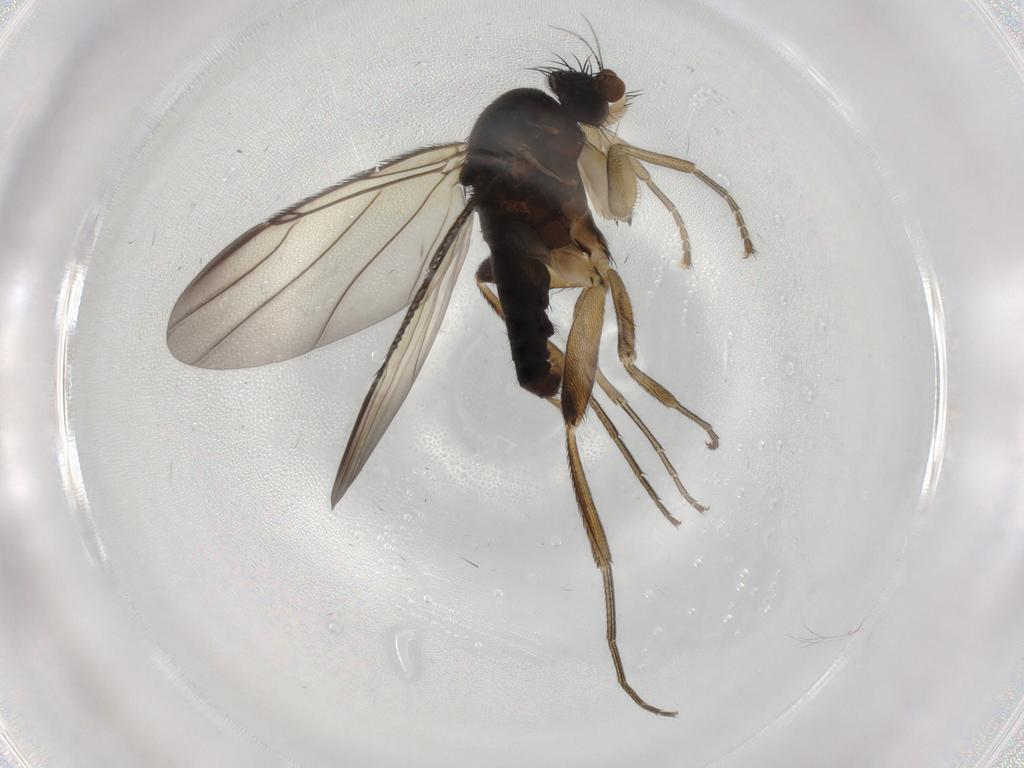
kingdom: Animalia
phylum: Arthropoda
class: Insecta
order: Diptera
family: Phoridae
